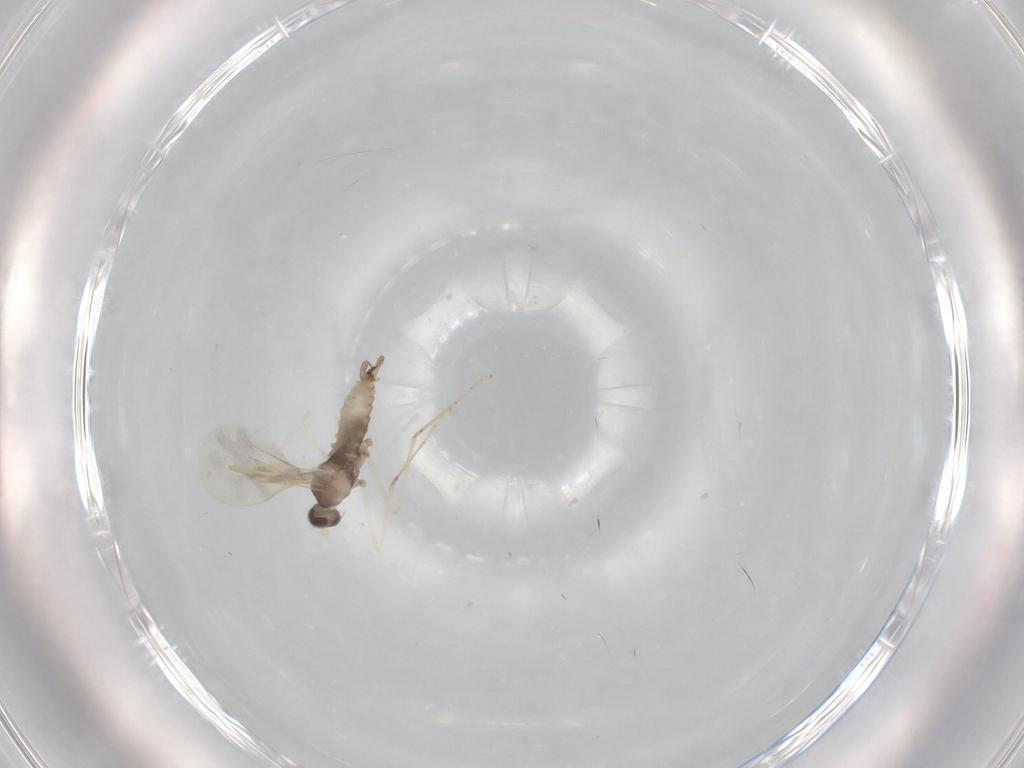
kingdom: Animalia
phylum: Arthropoda
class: Insecta
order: Diptera
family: Cecidomyiidae
